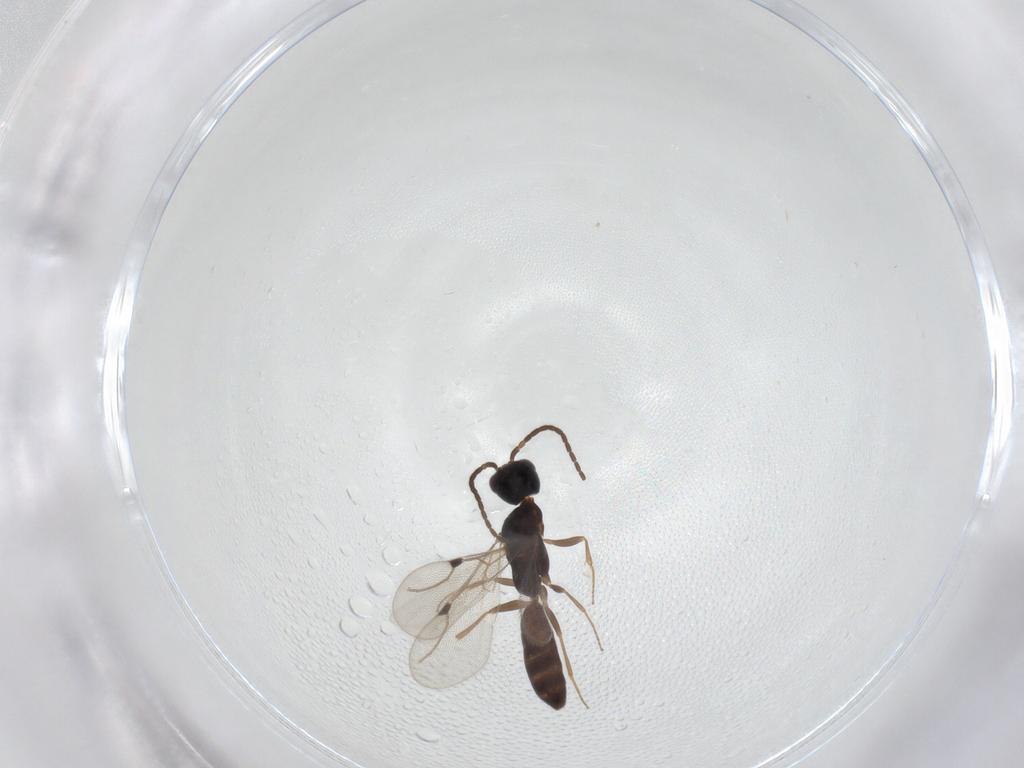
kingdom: Animalia
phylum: Arthropoda
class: Insecta
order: Hymenoptera
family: Bethylidae
